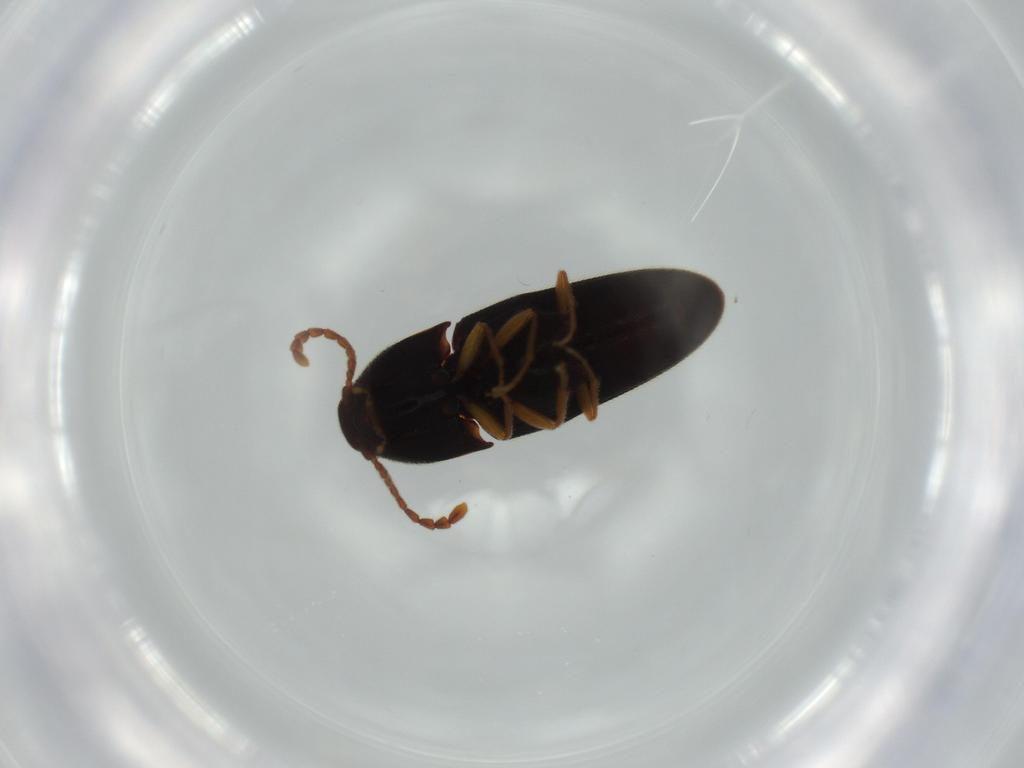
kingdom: Animalia
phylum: Arthropoda
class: Insecta
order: Coleoptera
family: Elateridae
